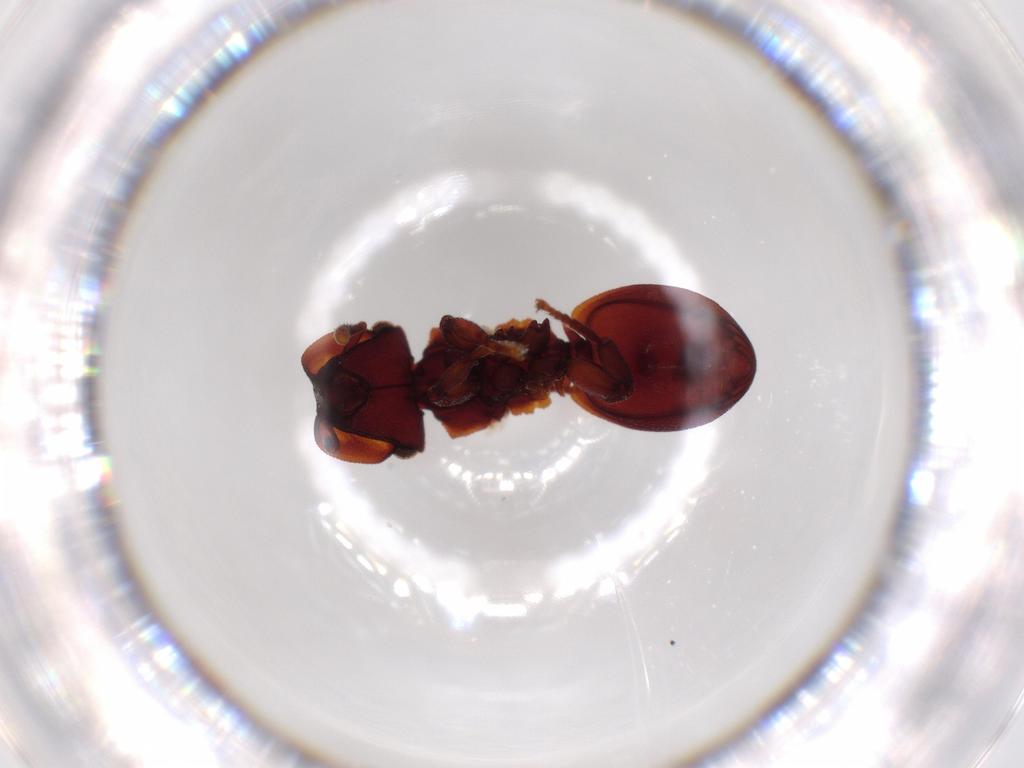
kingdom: Animalia
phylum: Arthropoda
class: Insecta
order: Hymenoptera
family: Formicidae
